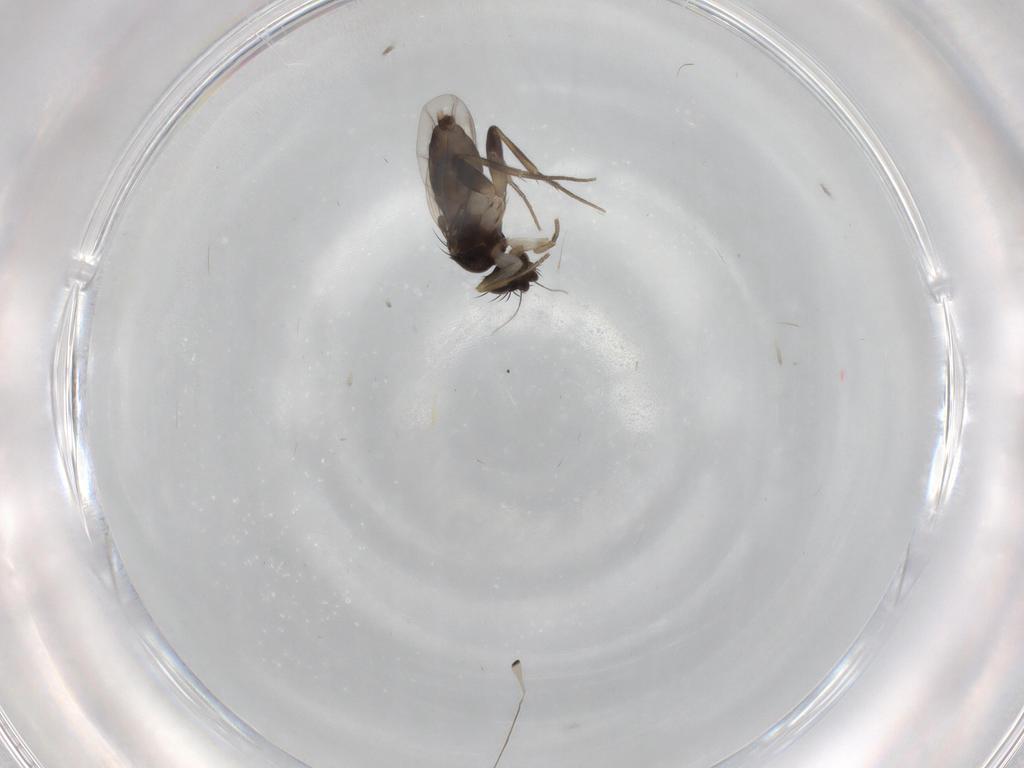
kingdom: Animalia
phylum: Arthropoda
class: Insecta
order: Diptera
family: Phoridae
